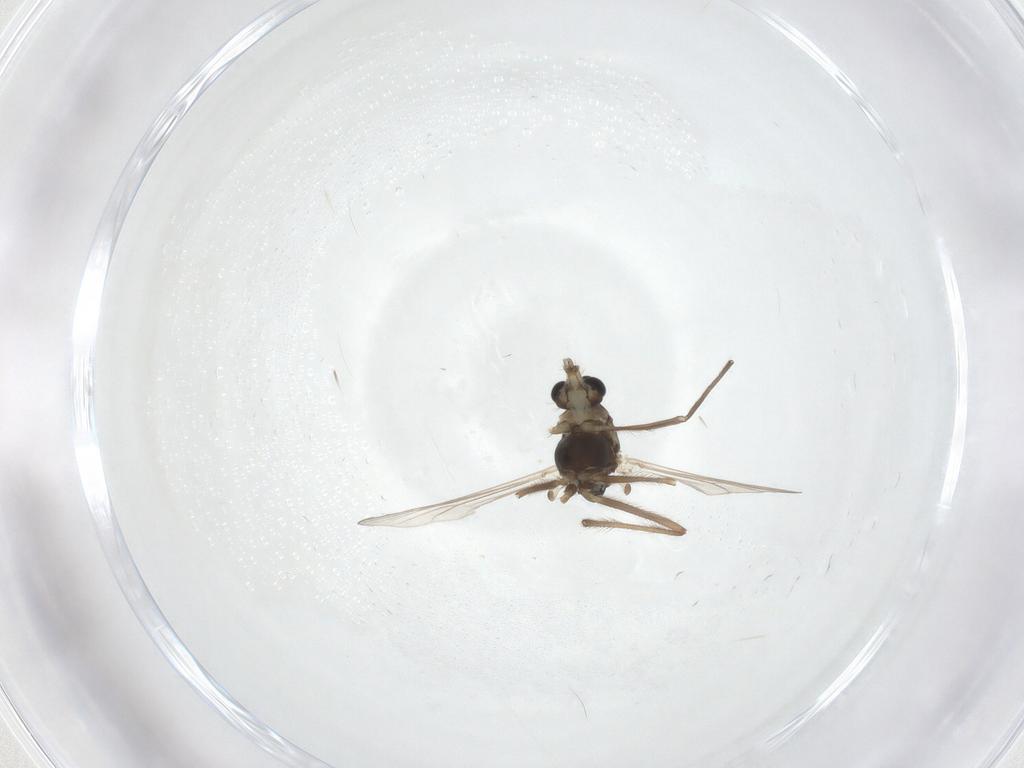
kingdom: Animalia
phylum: Arthropoda
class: Insecta
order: Diptera
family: Chironomidae
